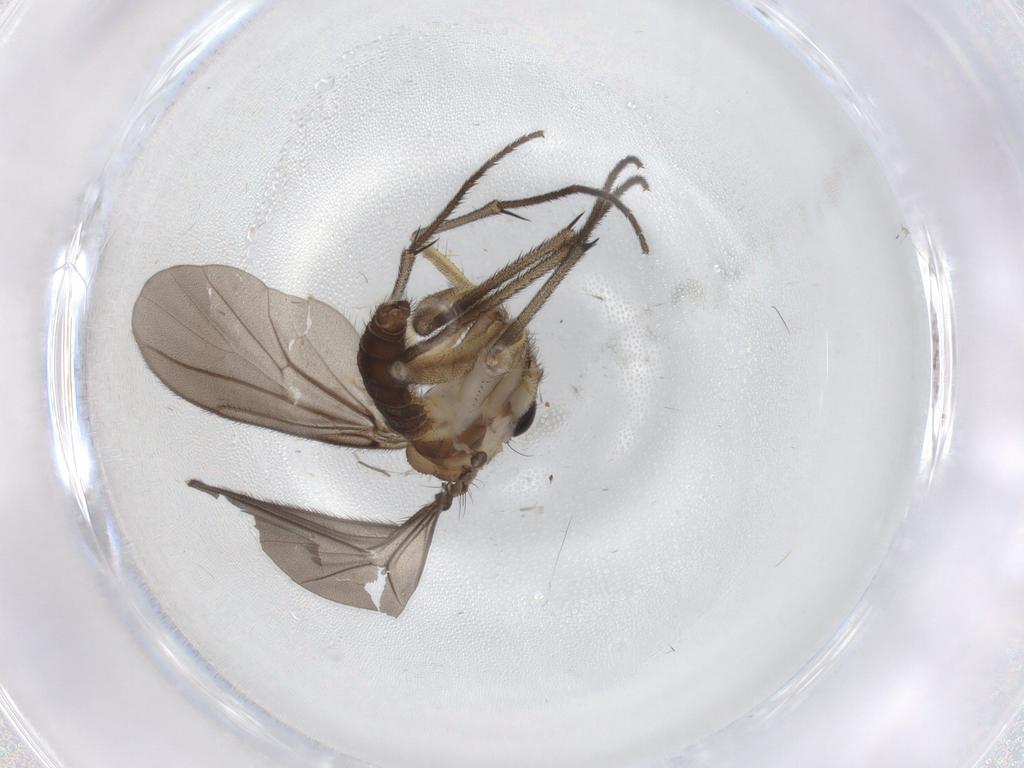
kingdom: Animalia
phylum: Arthropoda
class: Insecta
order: Diptera
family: Diadocidiidae
